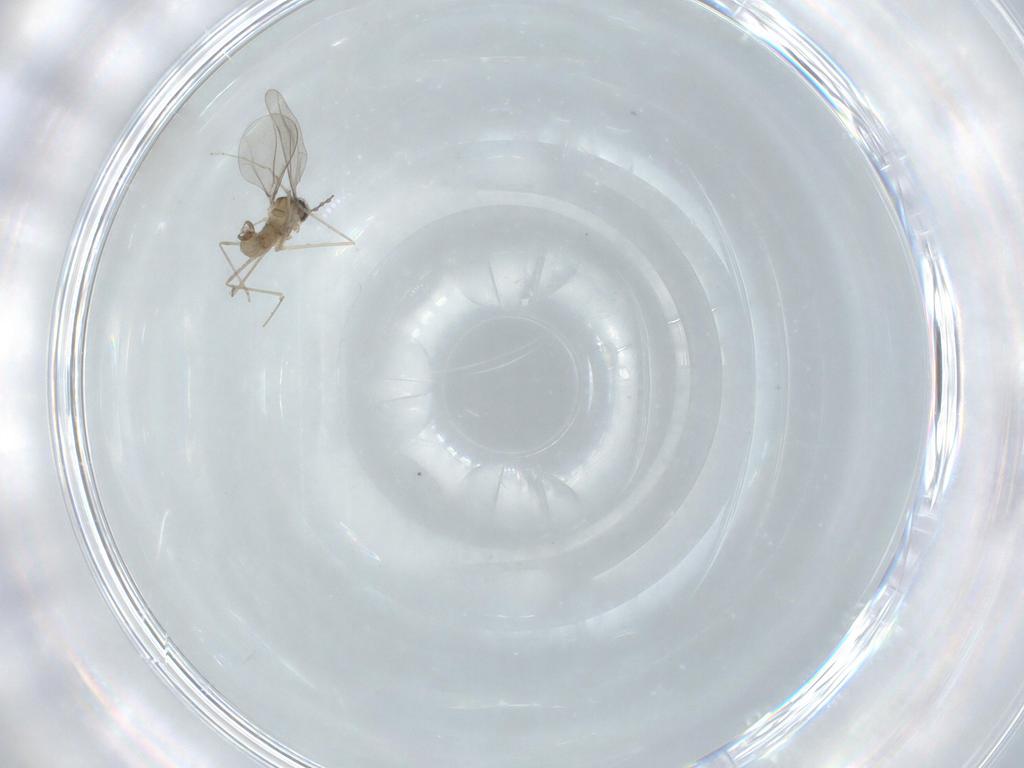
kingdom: Animalia
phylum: Arthropoda
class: Insecta
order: Diptera
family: Cecidomyiidae
